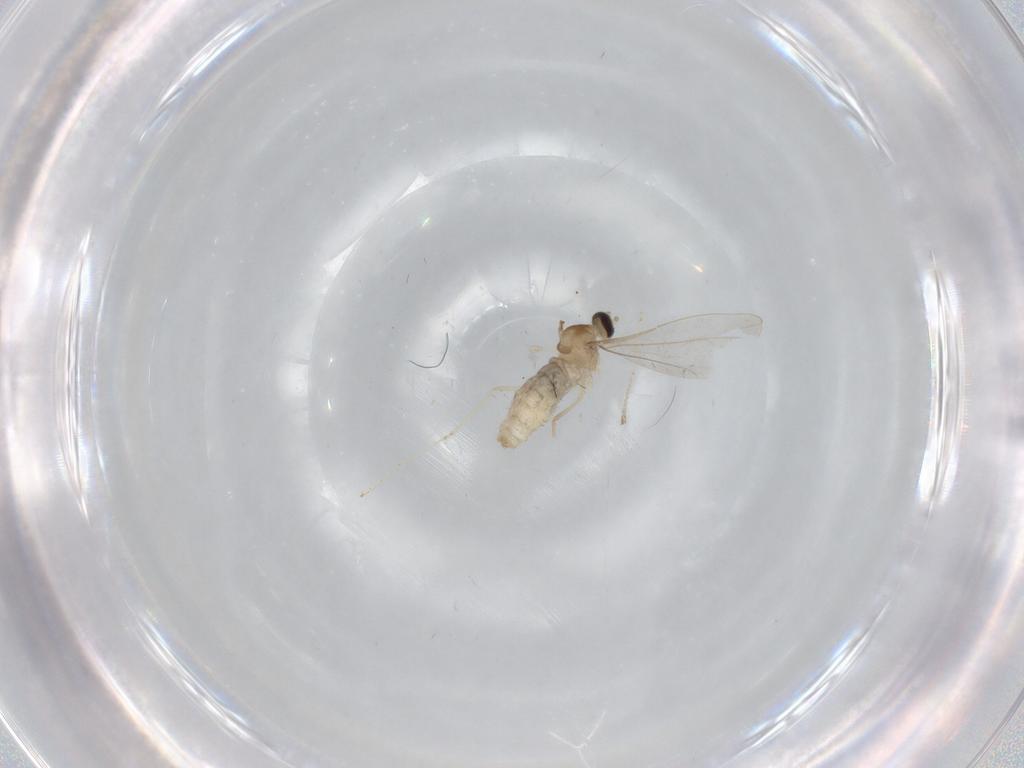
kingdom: Animalia
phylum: Arthropoda
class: Insecta
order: Diptera
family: Cecidomyiidae
